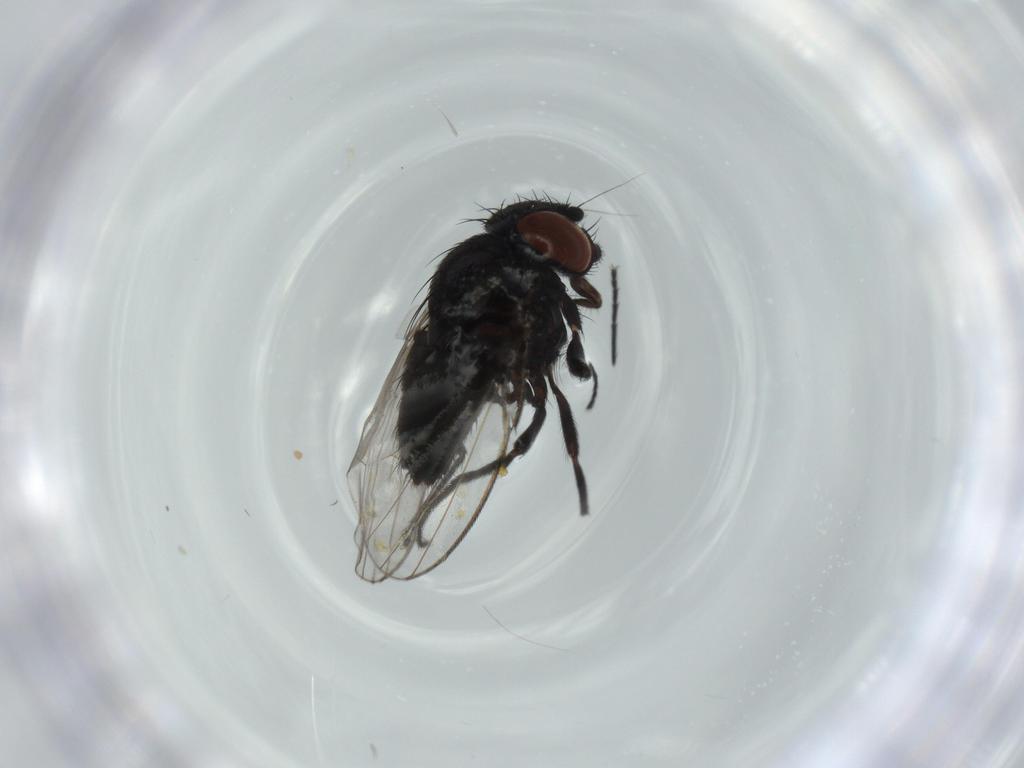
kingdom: Animalia
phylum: Arthropoda
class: Insecta
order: Diptera
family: Milichiidae
